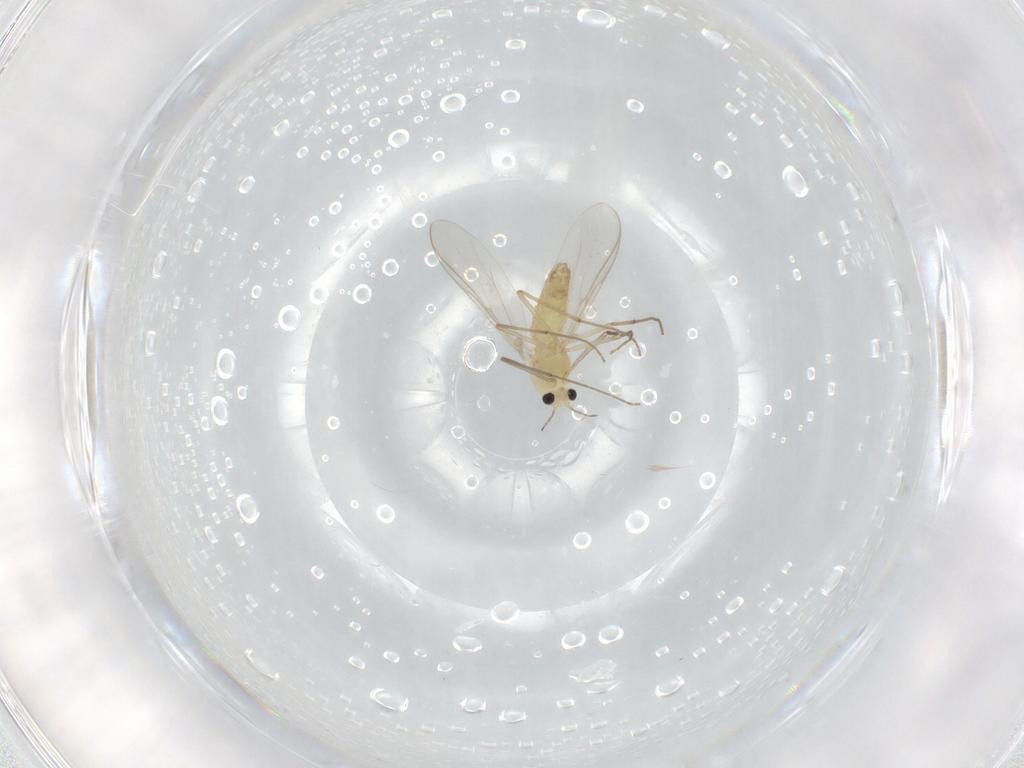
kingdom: Animalia
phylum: Arthropoda
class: Insecta
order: Diptera
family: Chironomidae
